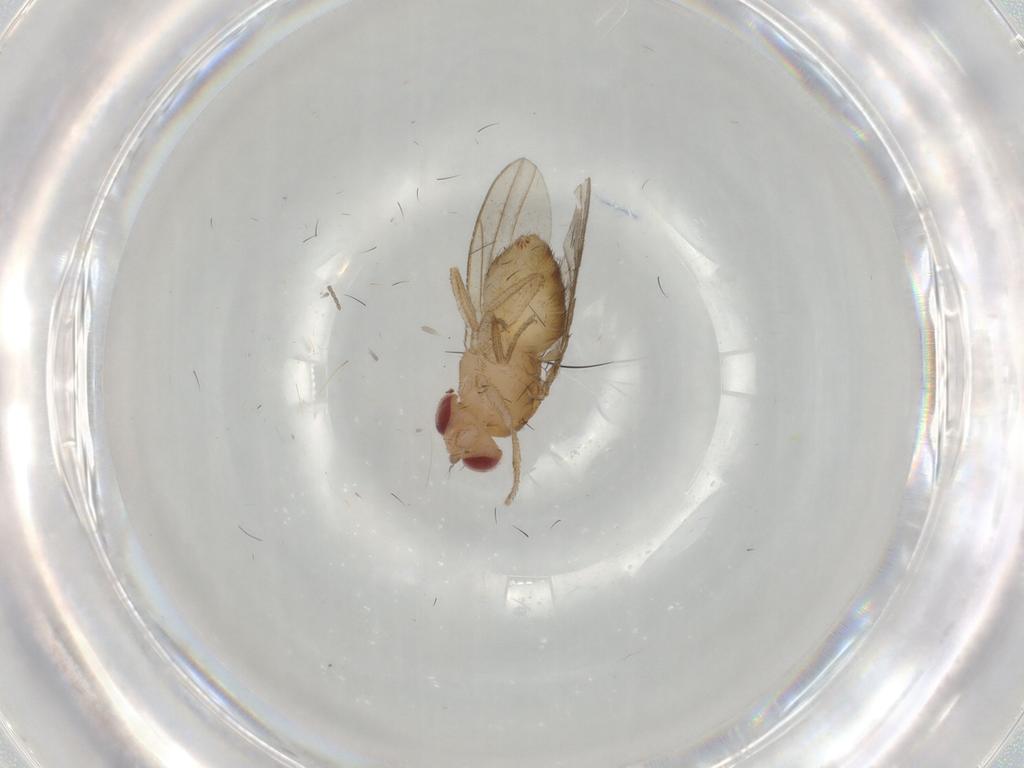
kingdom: Animalia
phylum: Arthropoda
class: Insecta
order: Diptera
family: Drosophilidae
